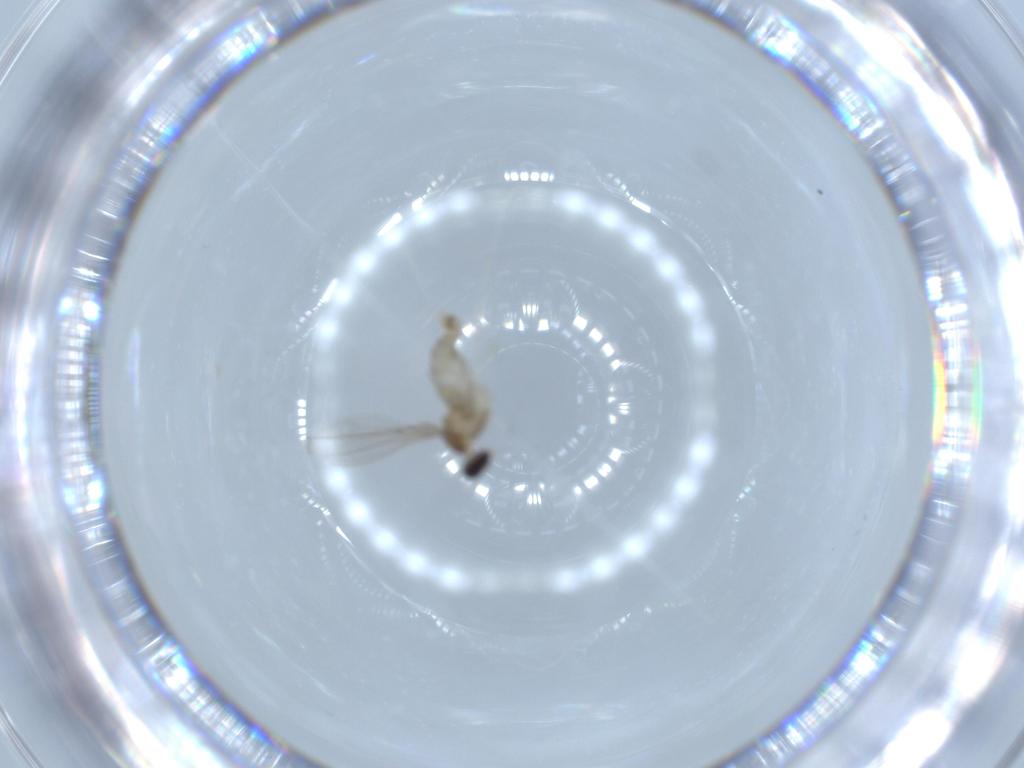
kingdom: Animalia
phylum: Arthropoda
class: Insecta
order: Diptera
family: Cecidomyiidae
